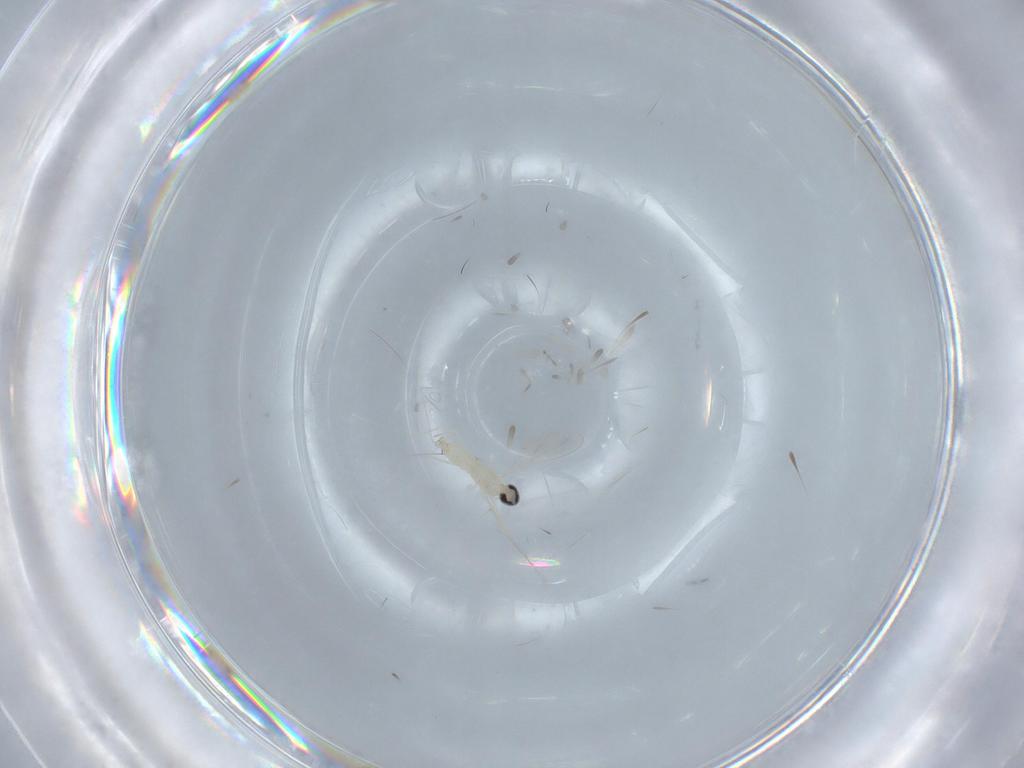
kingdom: Animalia
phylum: Arthropoda
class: Insecta
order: Diptera
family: Cecidomyiidae
